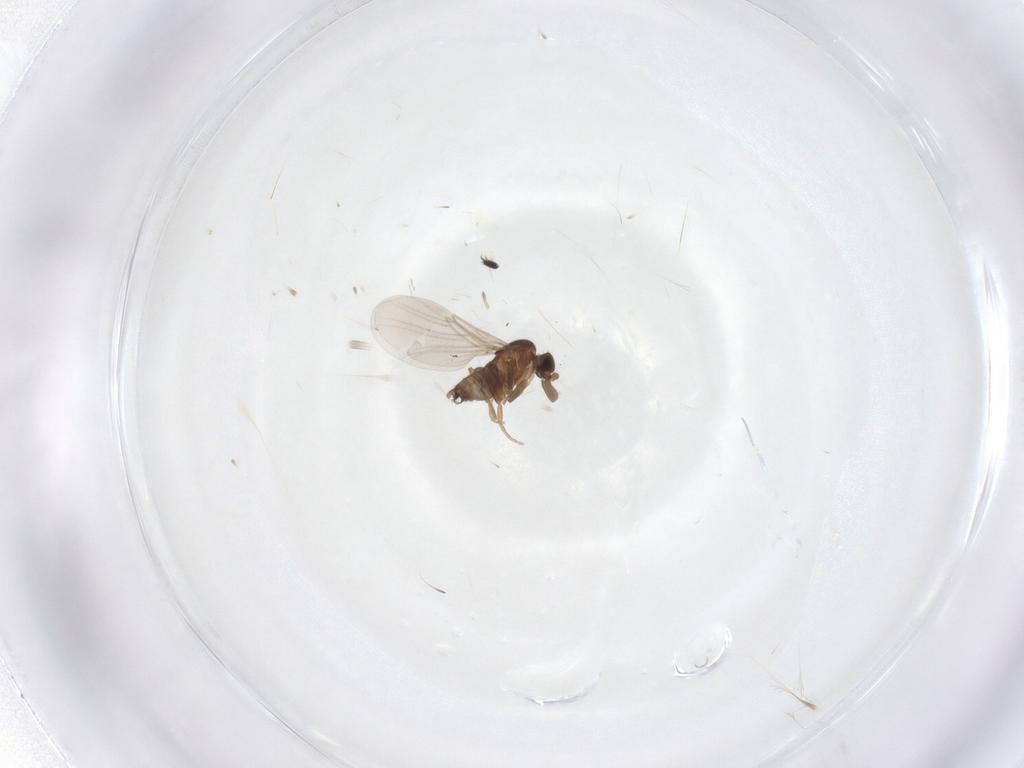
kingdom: Animalia
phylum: Arthropoda
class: Insecta
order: Diptera
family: Tachinidae
